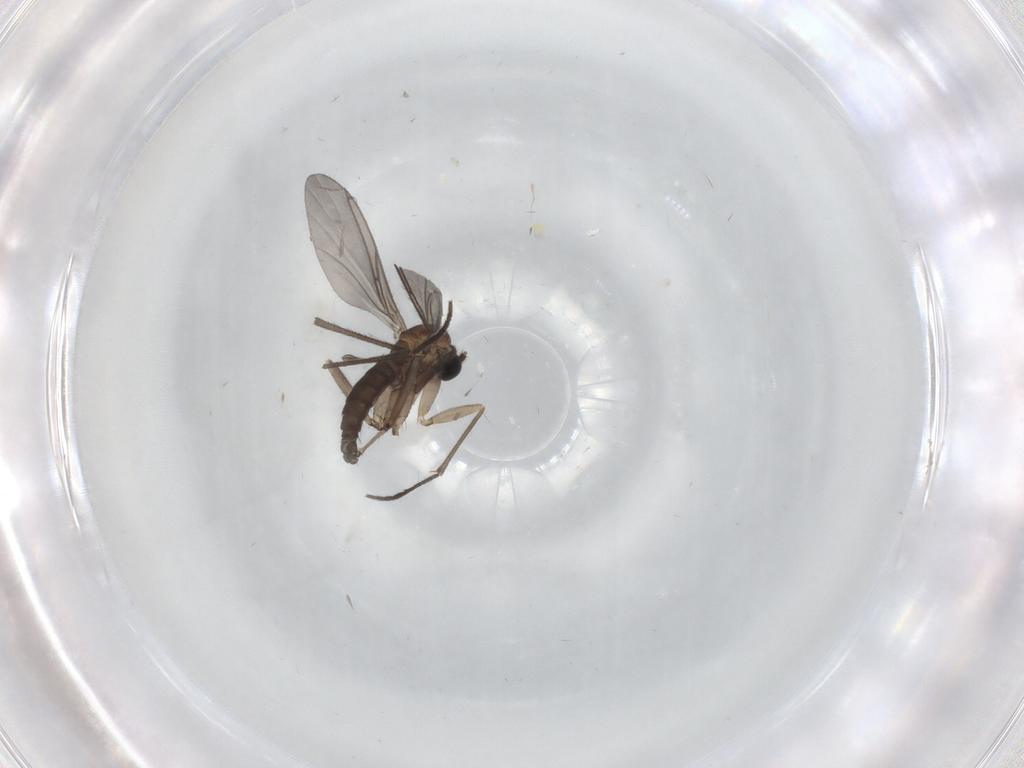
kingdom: Animalia
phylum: Arthropoda
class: Insecta
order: Diptera
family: Sciaridae
